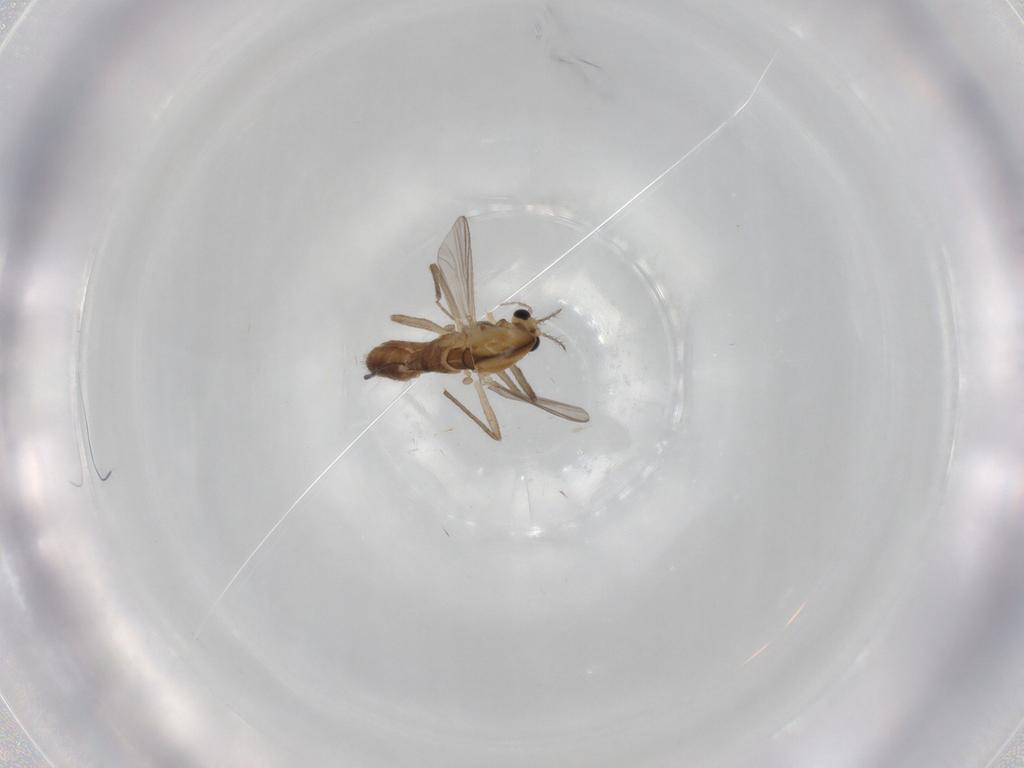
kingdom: Animalia
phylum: Arthropoda
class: Insecta
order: Diptera
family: Chironomidae
